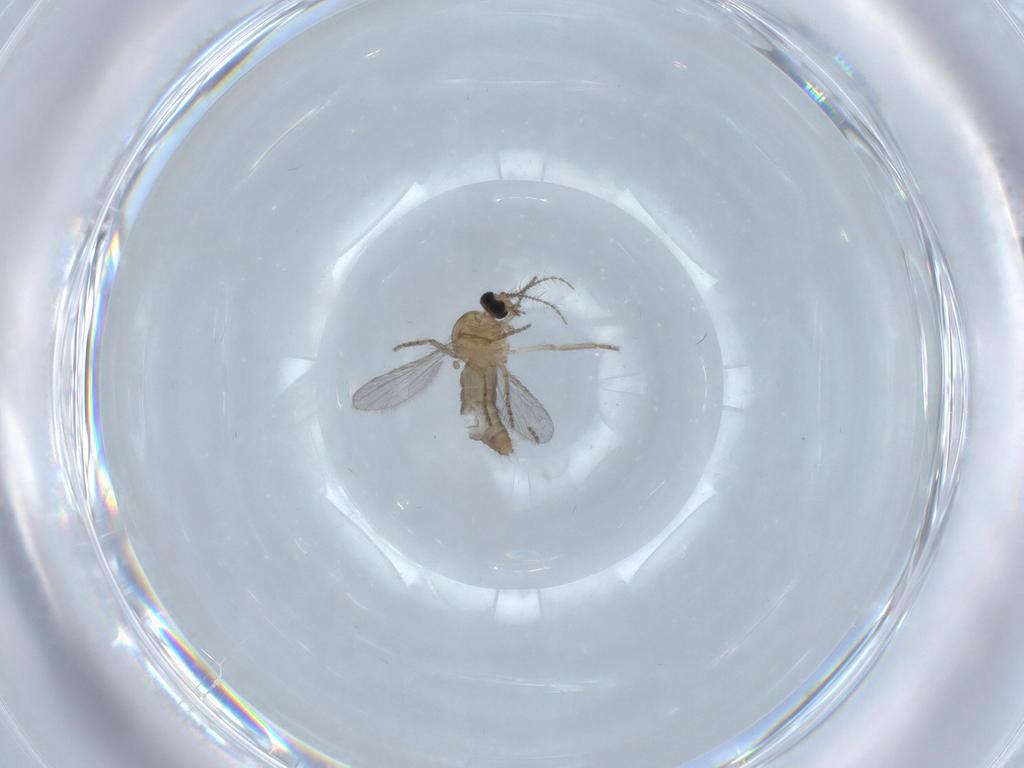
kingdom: Animalia
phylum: Arthropoda
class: Insecta
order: Diptera
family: Ceratopogonidae
